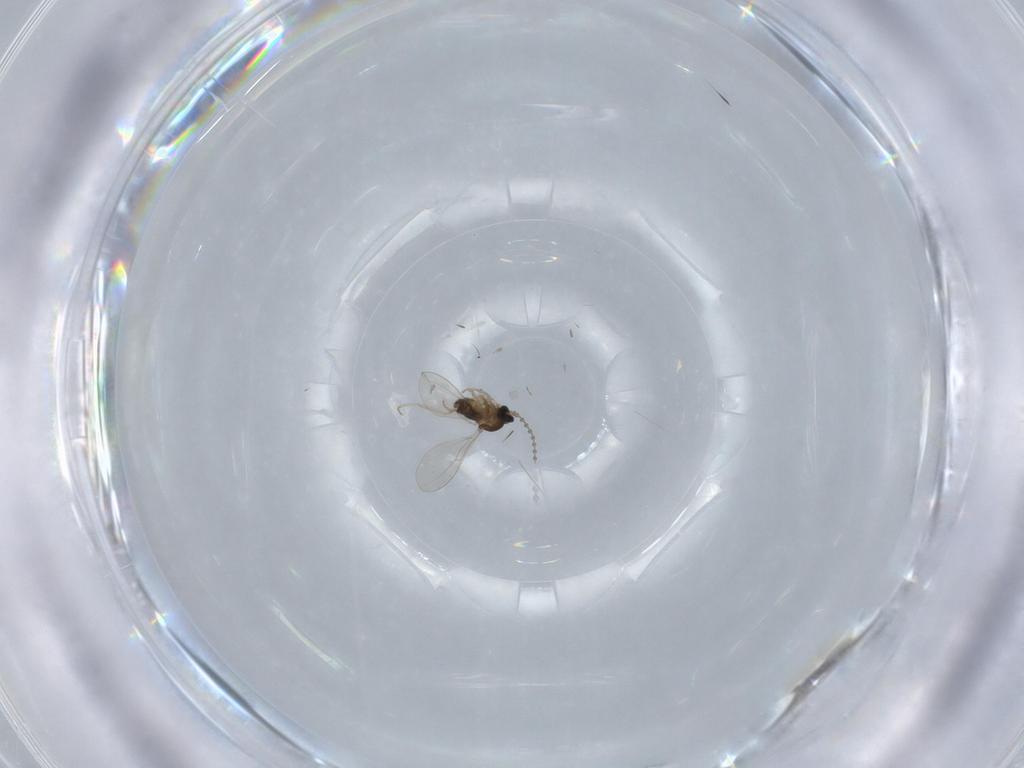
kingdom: Animalia
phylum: Arthropoda
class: Insecta
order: Diptera
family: Cecidomyiidae
